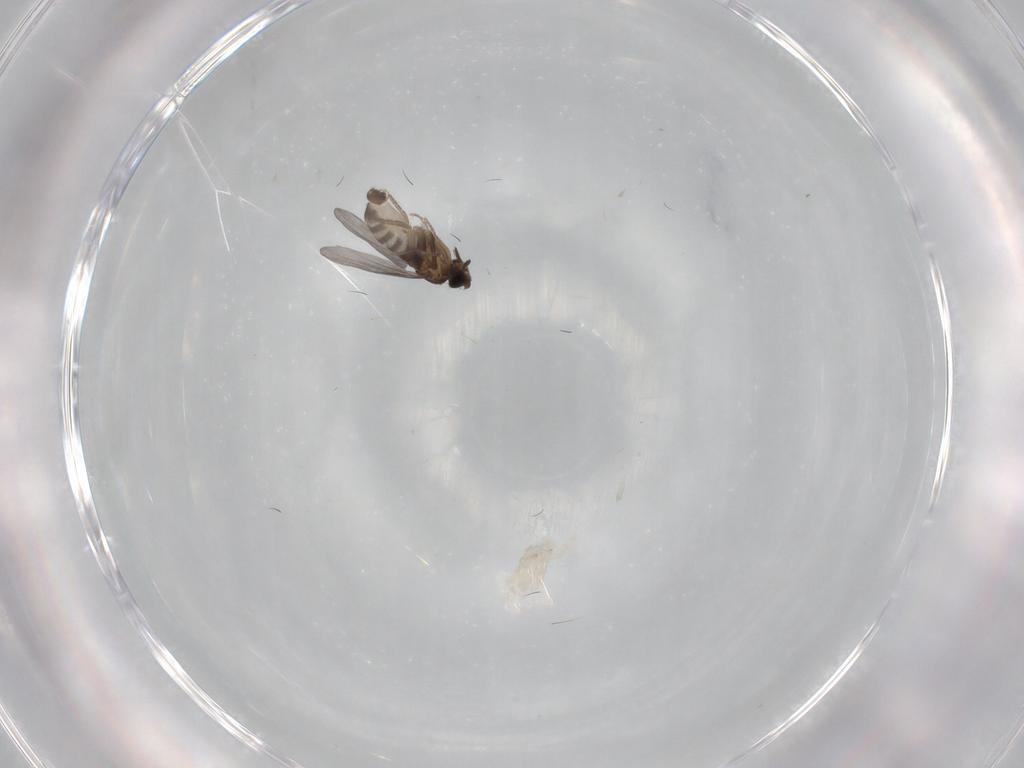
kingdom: Animalia
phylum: Arthropoda
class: Insecta
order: Diptera
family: Chironomidae
